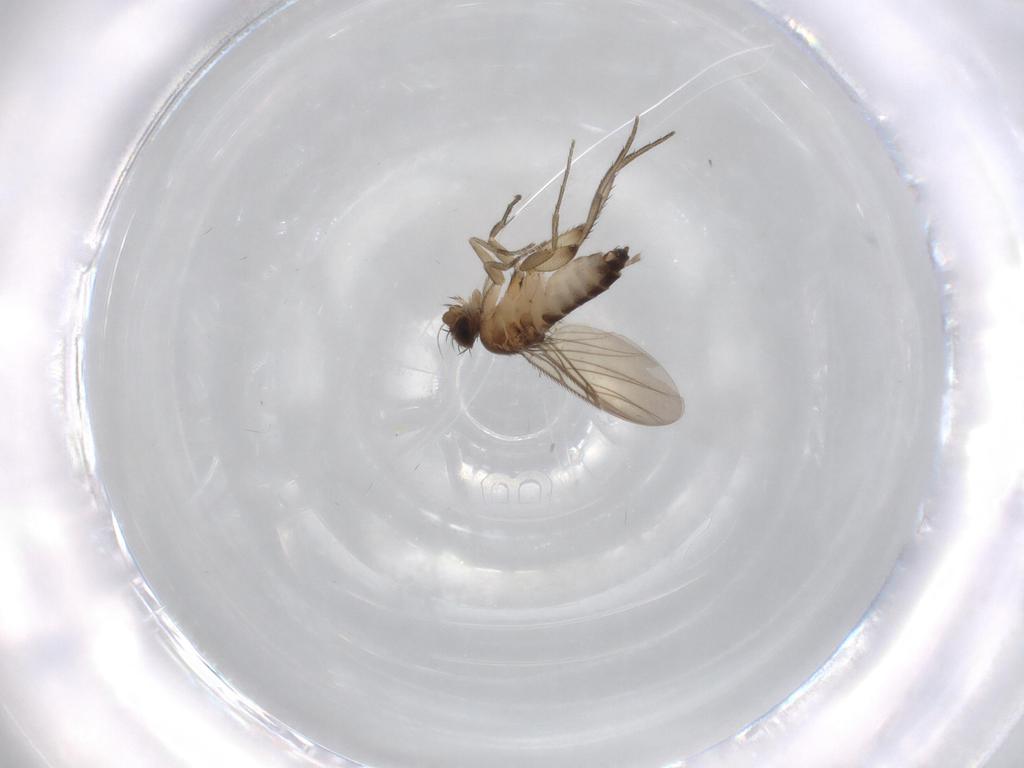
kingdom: Animalia
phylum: Arthropoda
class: Insecta
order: Diptera
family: Phoridae
